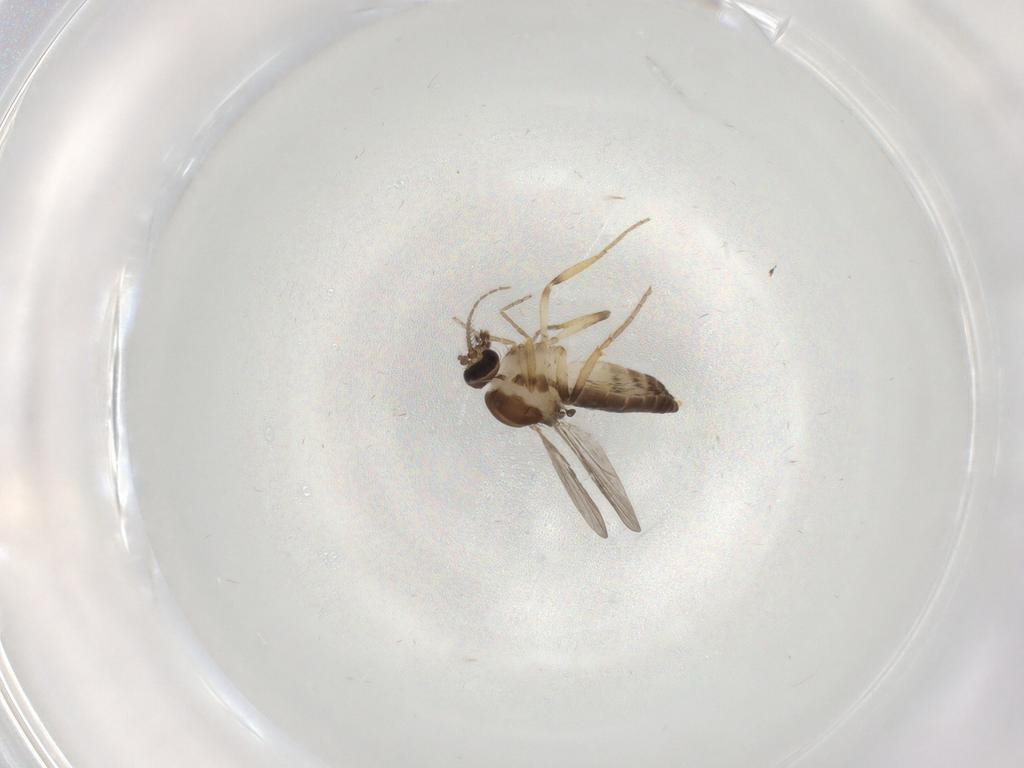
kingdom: Animalia
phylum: Arthropoda
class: Insecta
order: Diptera
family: Ceratopogonidae
